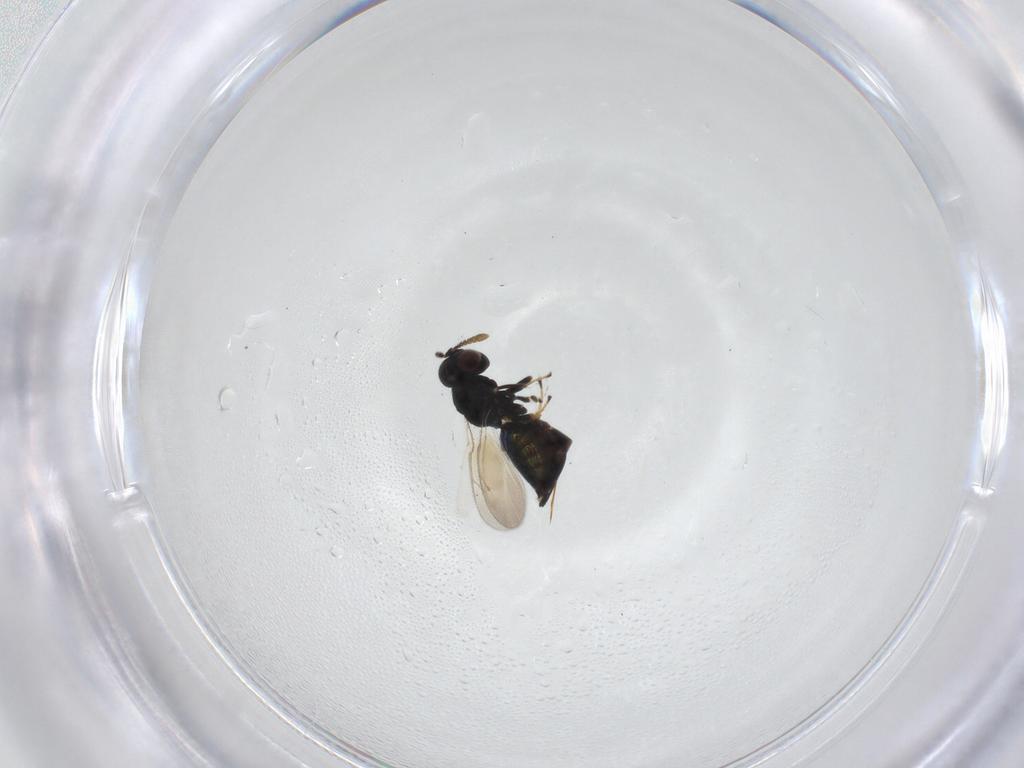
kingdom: Animalia
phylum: Arthropoda
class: Insecta
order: Hymenoptera
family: Pteromalidae
